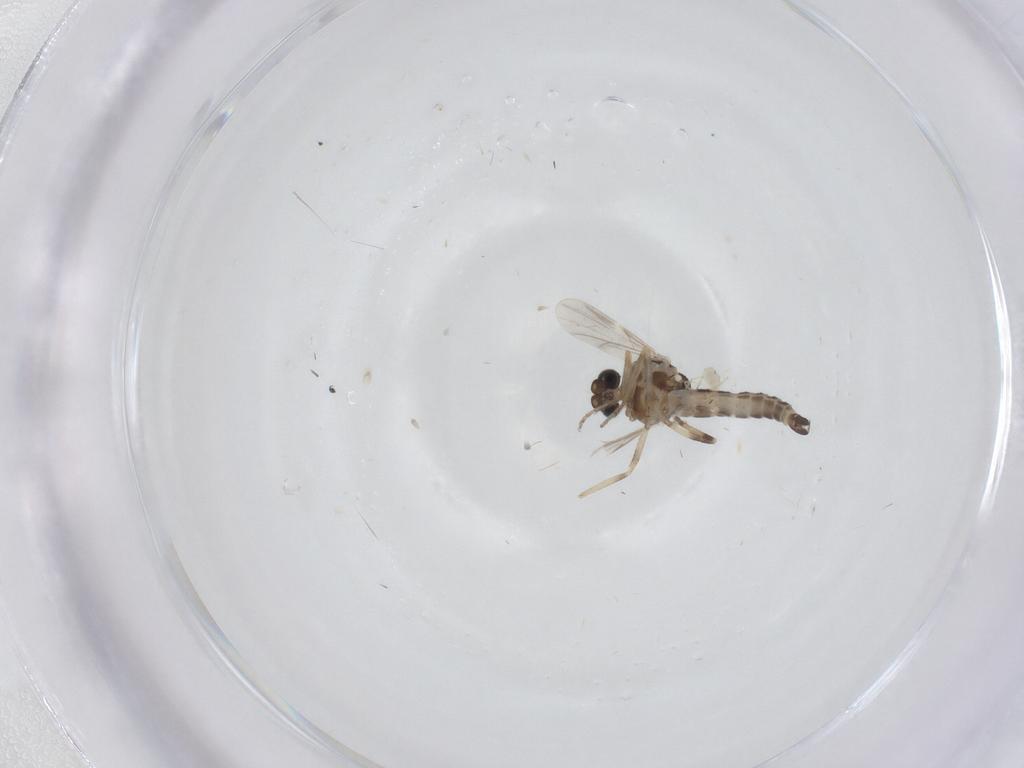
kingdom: Animalia
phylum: Arthropoda
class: Insecta
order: Diptera
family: Sciaridae
